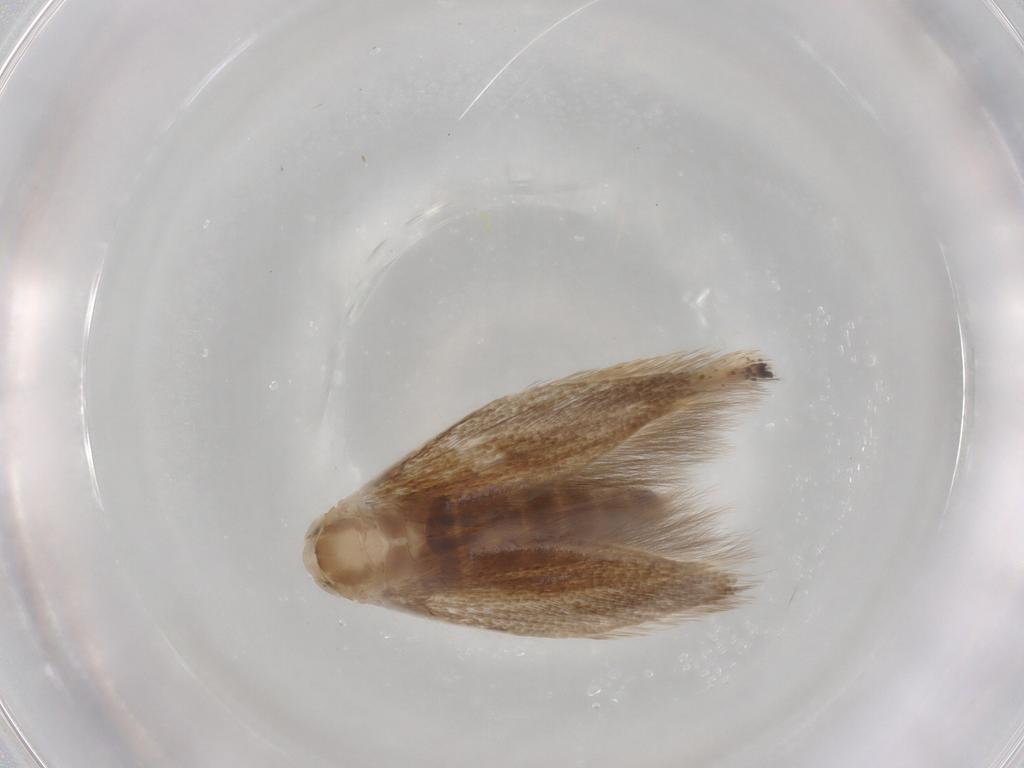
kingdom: Animalia
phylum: Arthropoda
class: Insecta
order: Lepidoptera
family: Bucculatricidae
